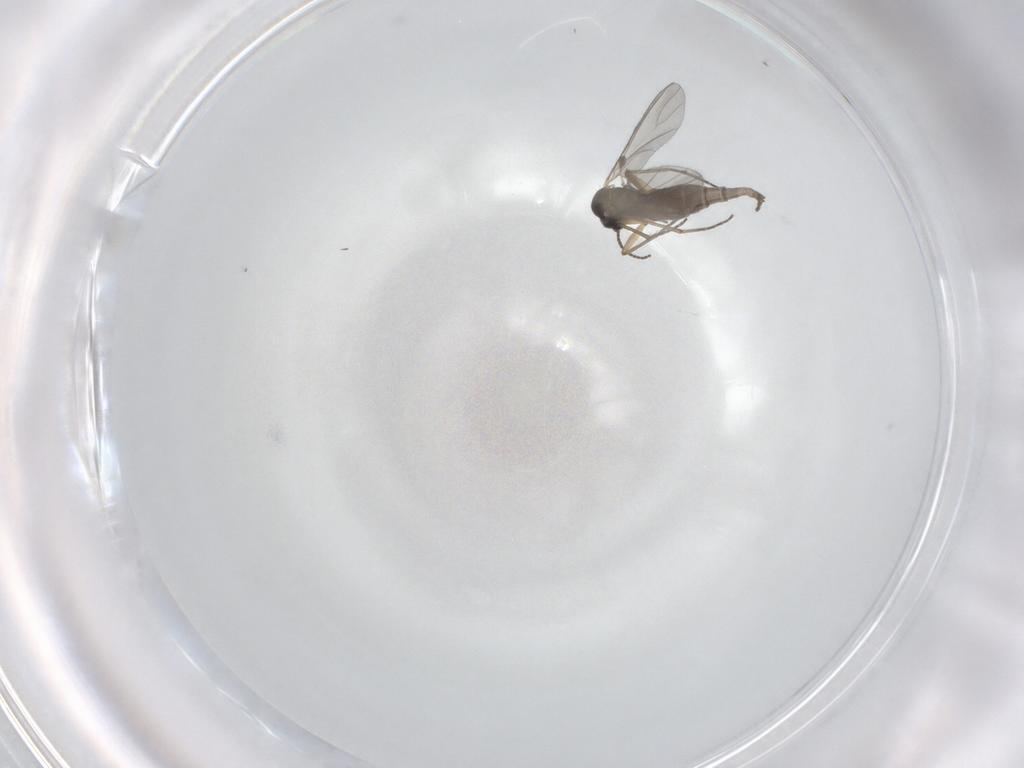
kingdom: Animalia
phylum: Arthropoda
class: Insecta
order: Diptera
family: Sciaridae
